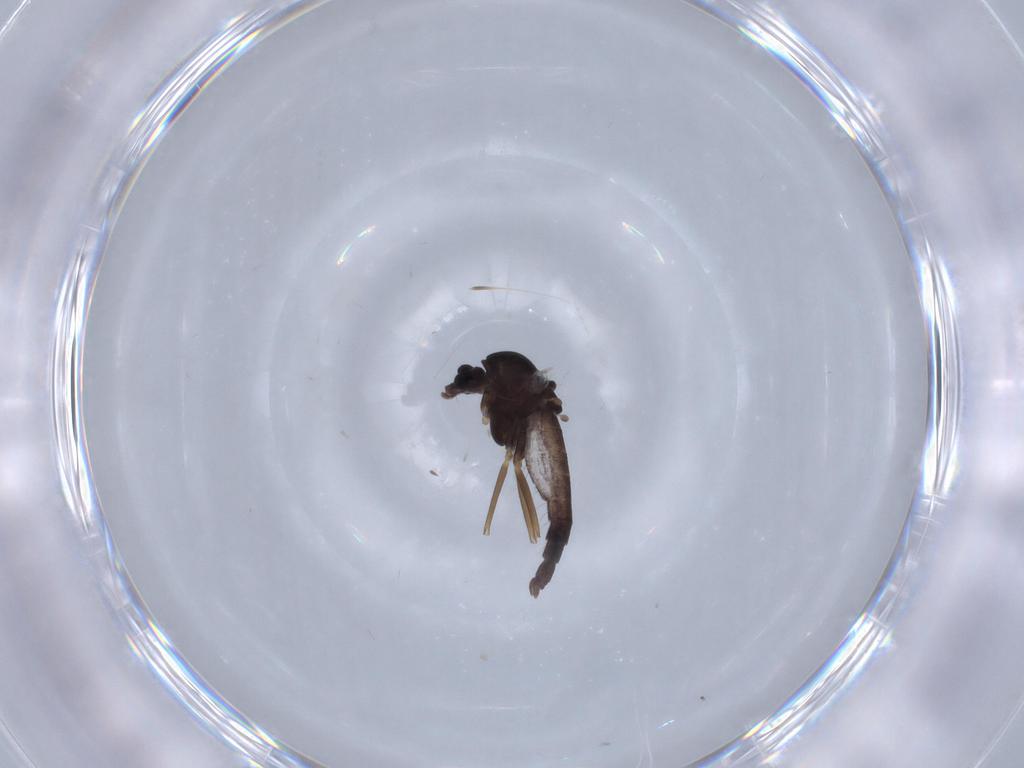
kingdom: Animalia
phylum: Arthropoda
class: Insecta
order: Diptera
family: Chironomidae
